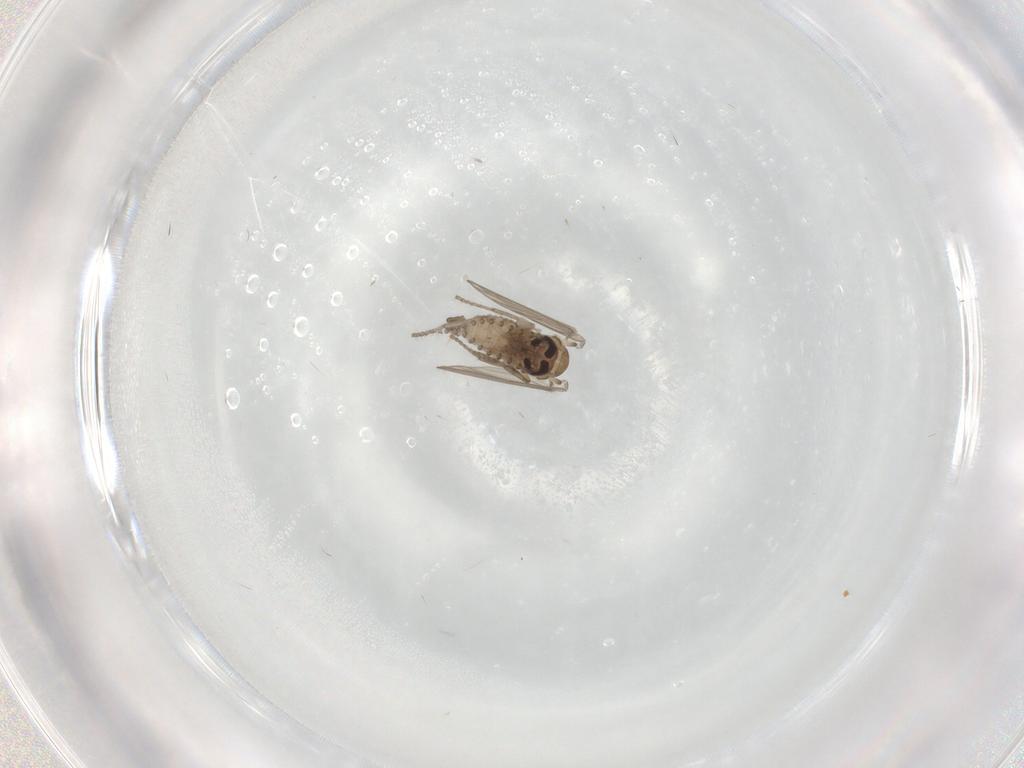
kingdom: Animalia
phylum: Arthropoda
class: Insecta
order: Diptera
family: Psychodidae
